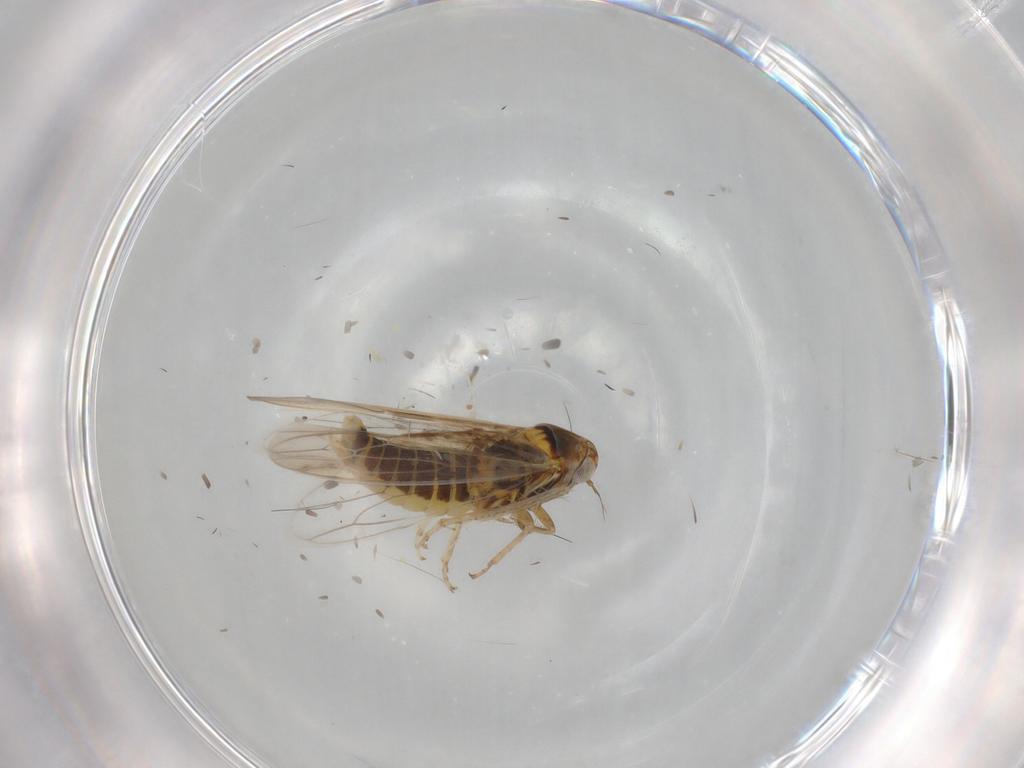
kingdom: Animalia
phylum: Arthropoda
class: Insecta
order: Hemiptera
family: Cicadellidae
